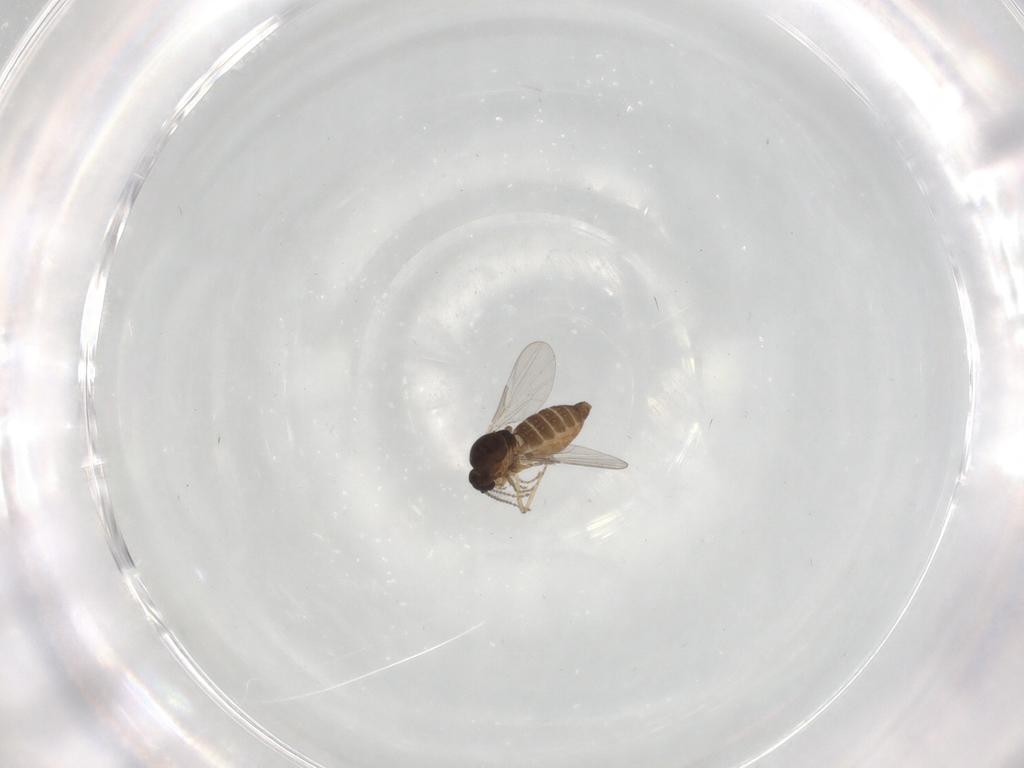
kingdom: Animalia
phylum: Arthropoda
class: Insecta
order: Diptera
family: Ceratopogonidae
